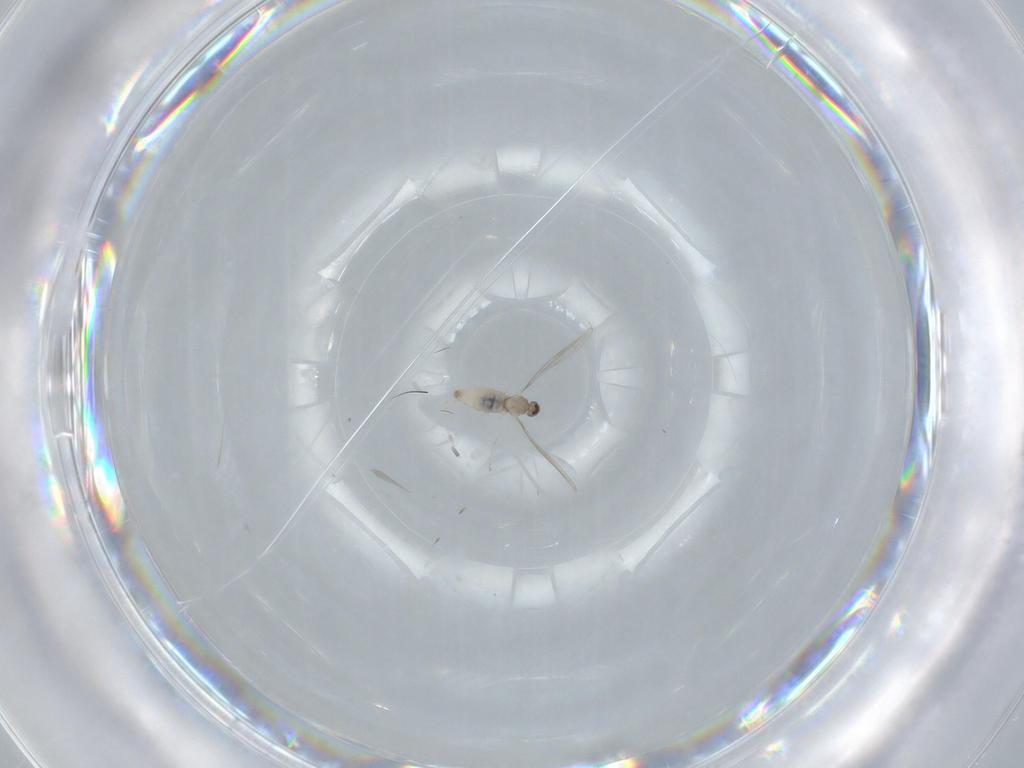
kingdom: Animalia
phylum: Arthropoda
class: Insecta
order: Diptera
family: Cecidomyiidae
